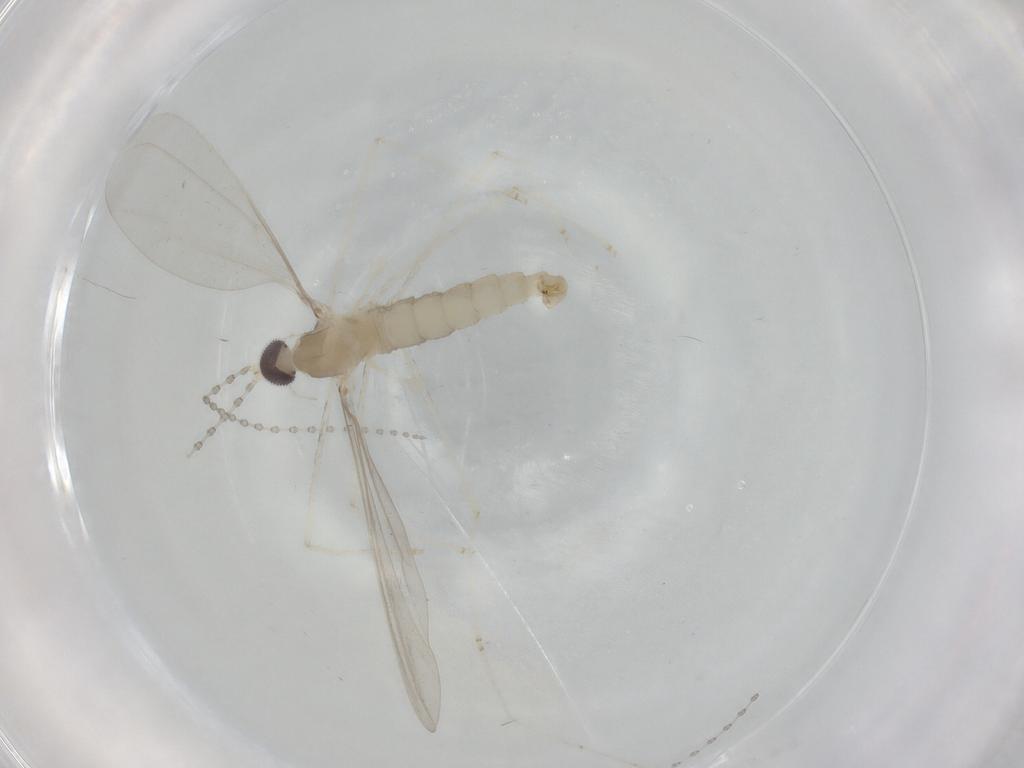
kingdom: Animalia
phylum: Arthropoda
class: Insecta
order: Diptera
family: Cecidomyiidae
